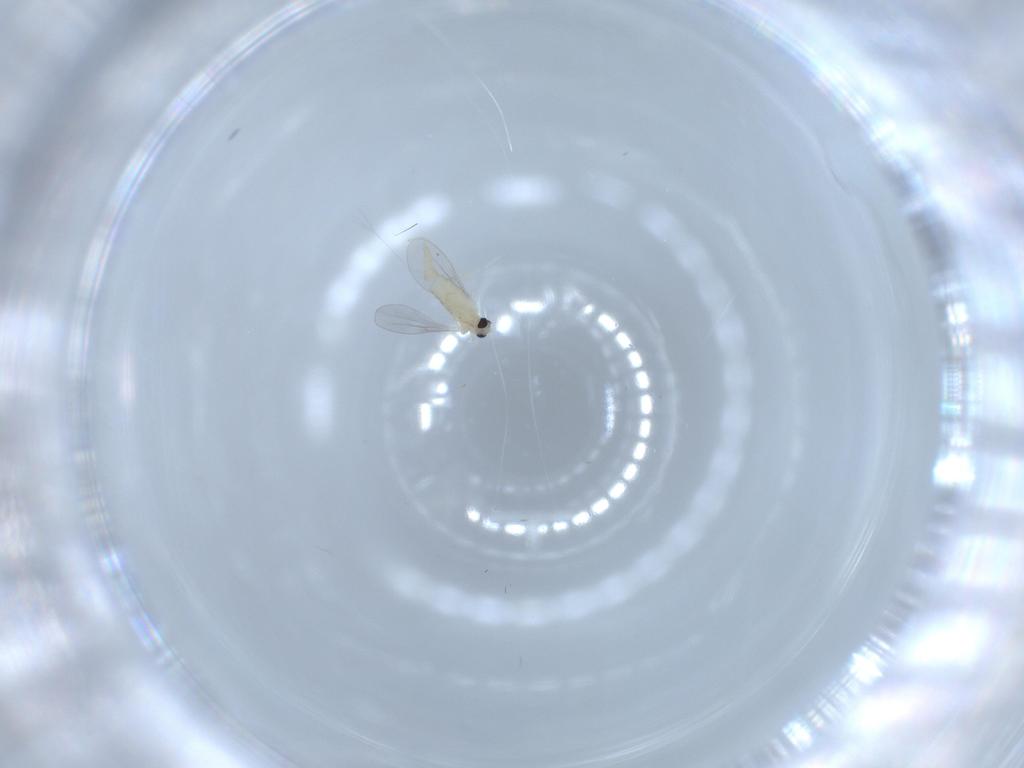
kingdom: Animalia
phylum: Arthropoda
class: Insecta
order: Diptera
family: Cecidomyiidae
